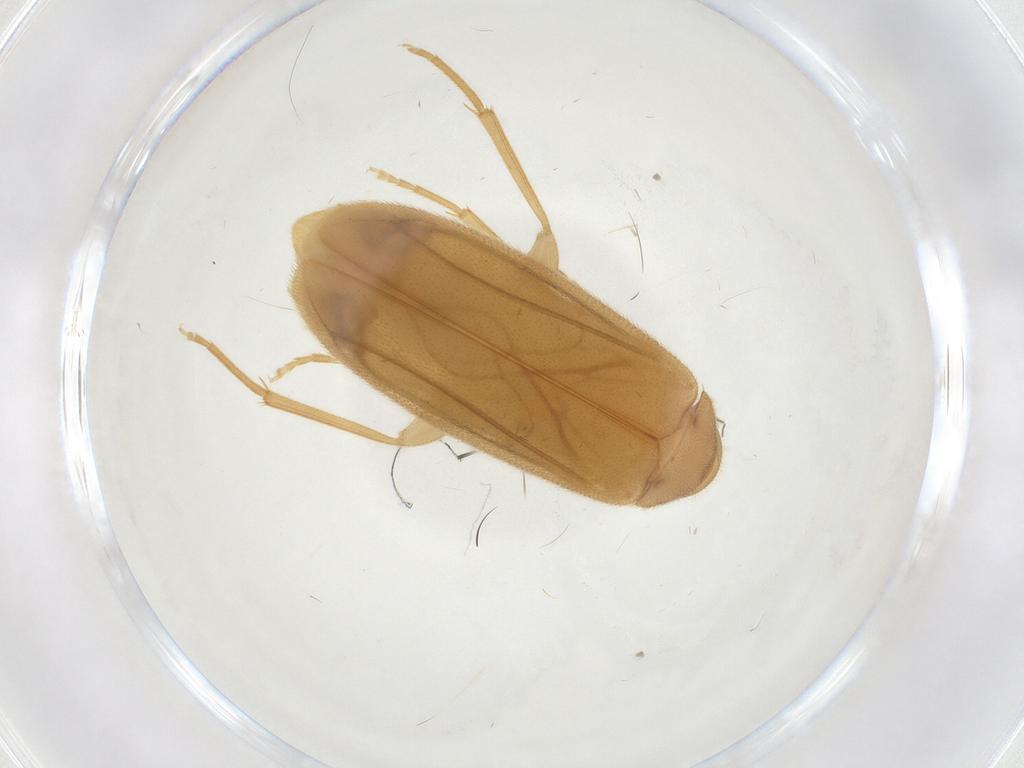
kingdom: Animalia
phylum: Arthropoda
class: Insecta
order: Coleoptera
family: Scraptiidae
